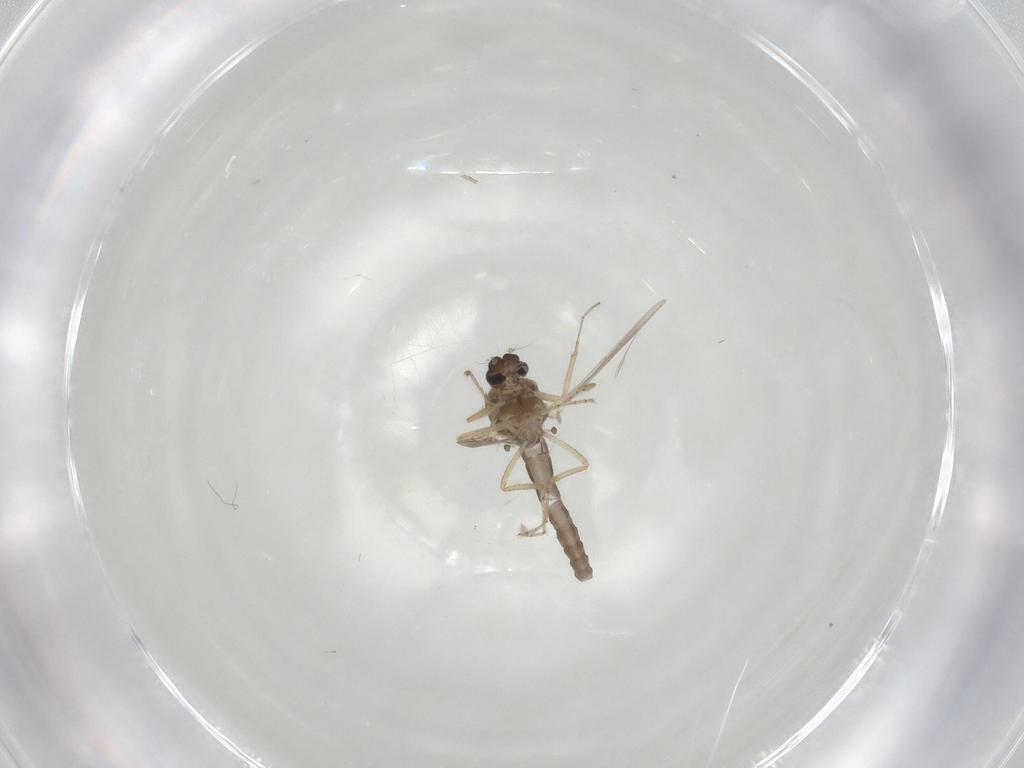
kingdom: Animalia
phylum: Arthropoda
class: Insecta
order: Diptera
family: Ceratopogonidae
